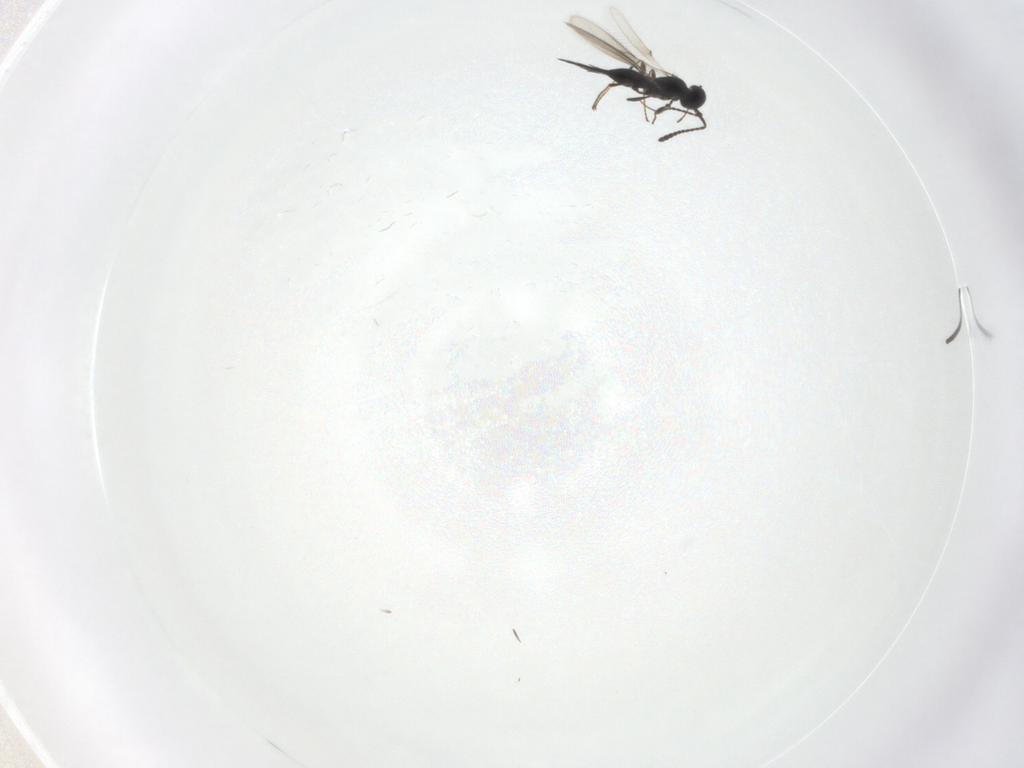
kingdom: Animalia
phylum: Arthropoda
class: Insecta
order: Hymenoptera
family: Scelionidae
